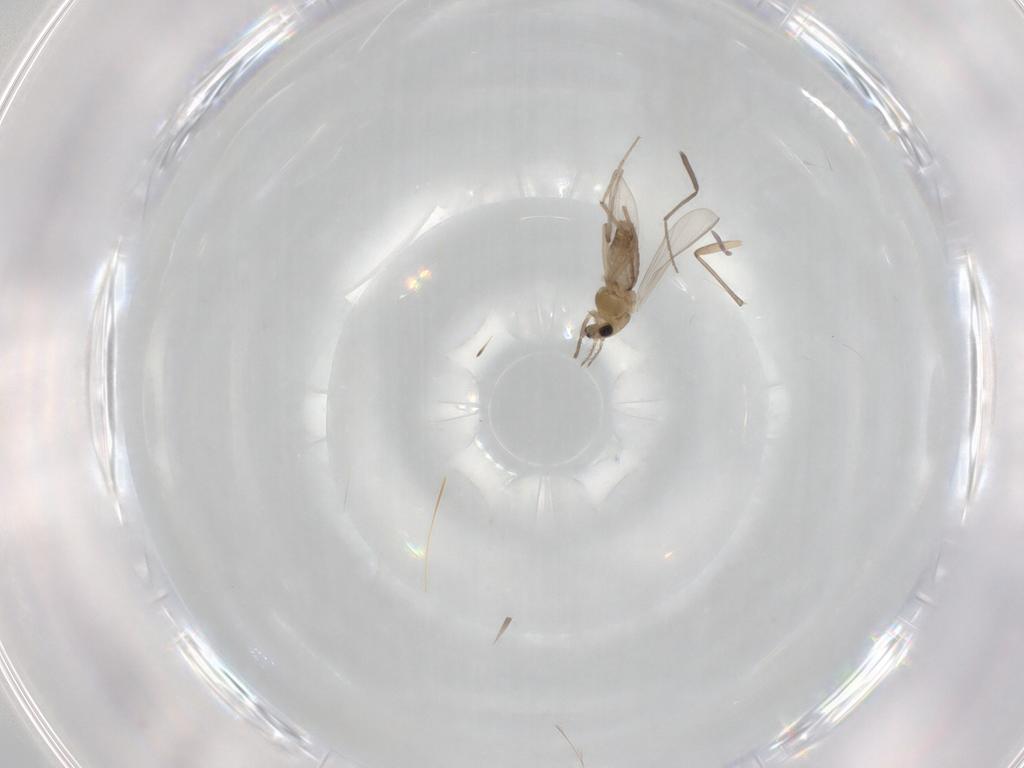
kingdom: Animalia
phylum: Arthropoda
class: Insecta
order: Diptera
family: Chironomidae
